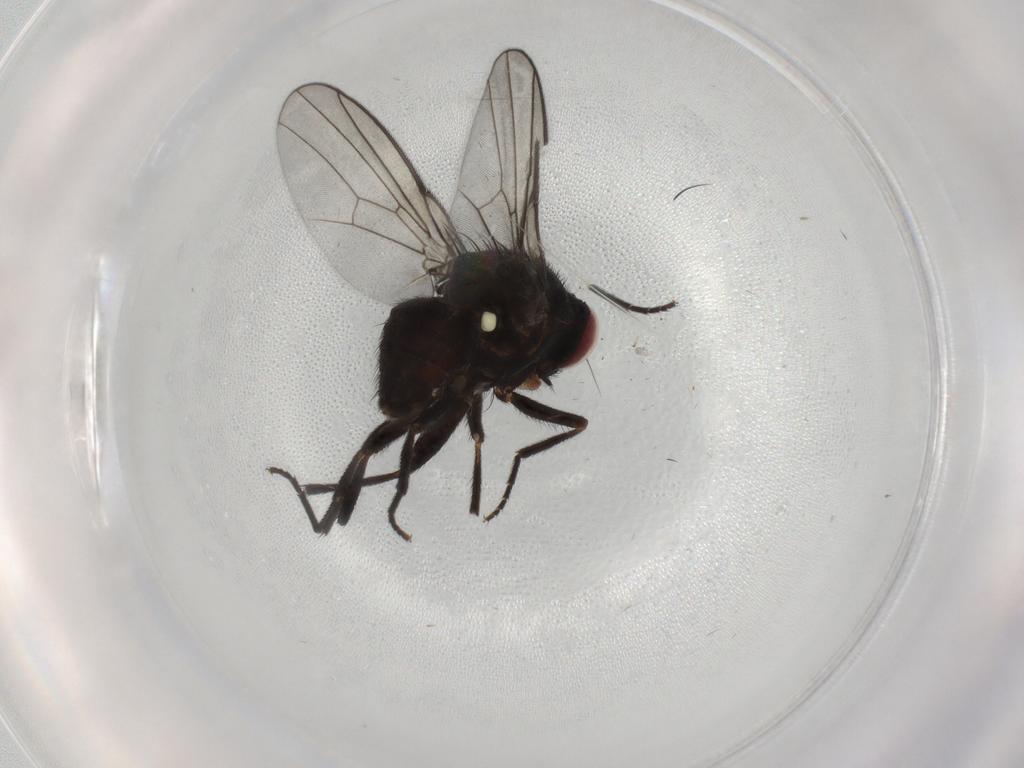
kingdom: Animalia
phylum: Arthropoda
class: Insecta
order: Diptera
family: Agromyzidae
